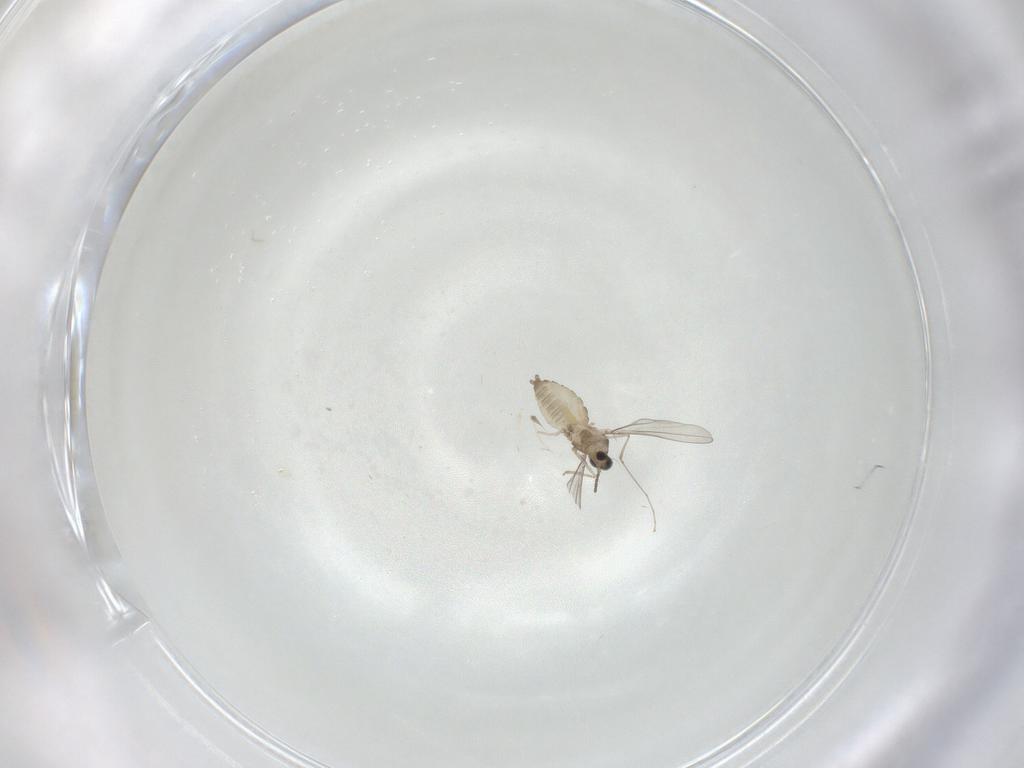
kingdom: Animalia
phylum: Arthropoda
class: Insecta
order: Diptera
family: Cecidomyiidae
